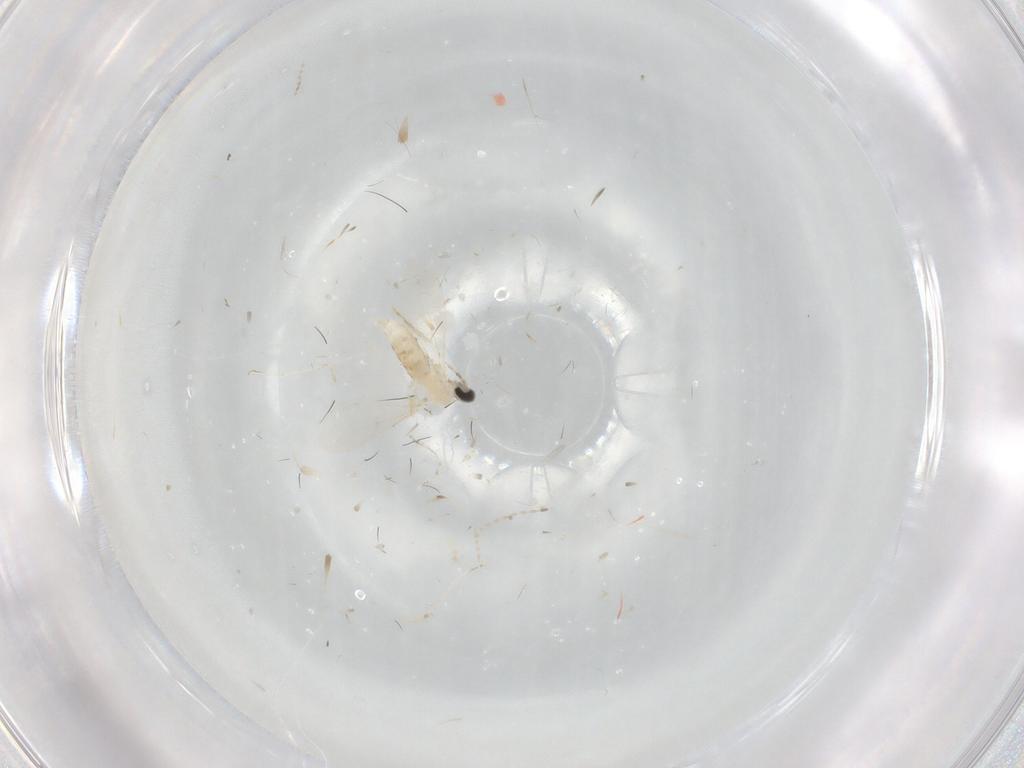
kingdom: Animalia
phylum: Arthropoda
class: Insecta
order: Diptera
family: Cecidomyiidae
